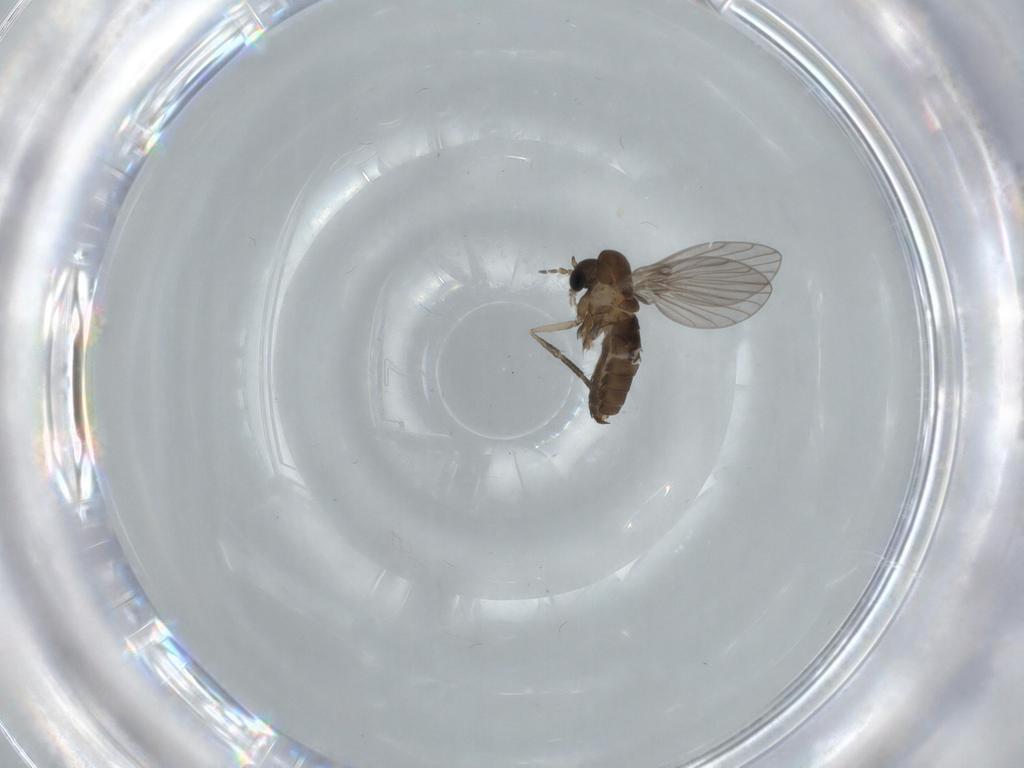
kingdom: Animalia
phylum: Arthropoda
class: Insecta
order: Diptera
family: Psychodidae
